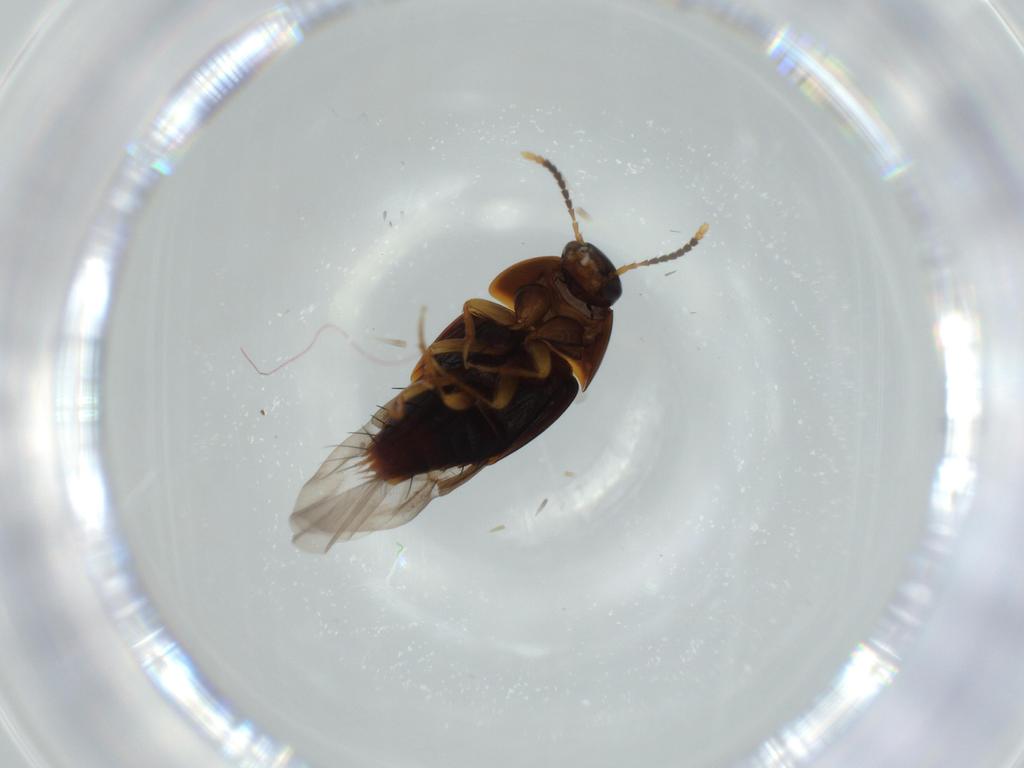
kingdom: Animalia
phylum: Arthropoda
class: Insecta
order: Coleoptera
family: Staphylinidae
